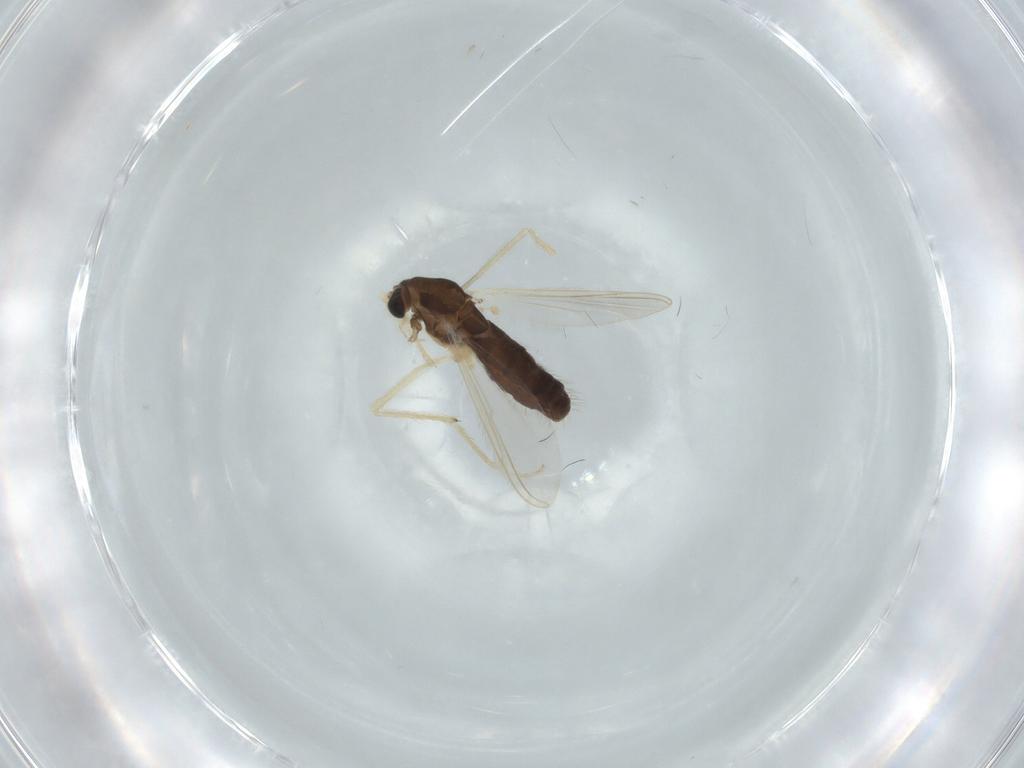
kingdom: Animalia
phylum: Arthropoda
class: Insecta
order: Diptera
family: Chironomidae
